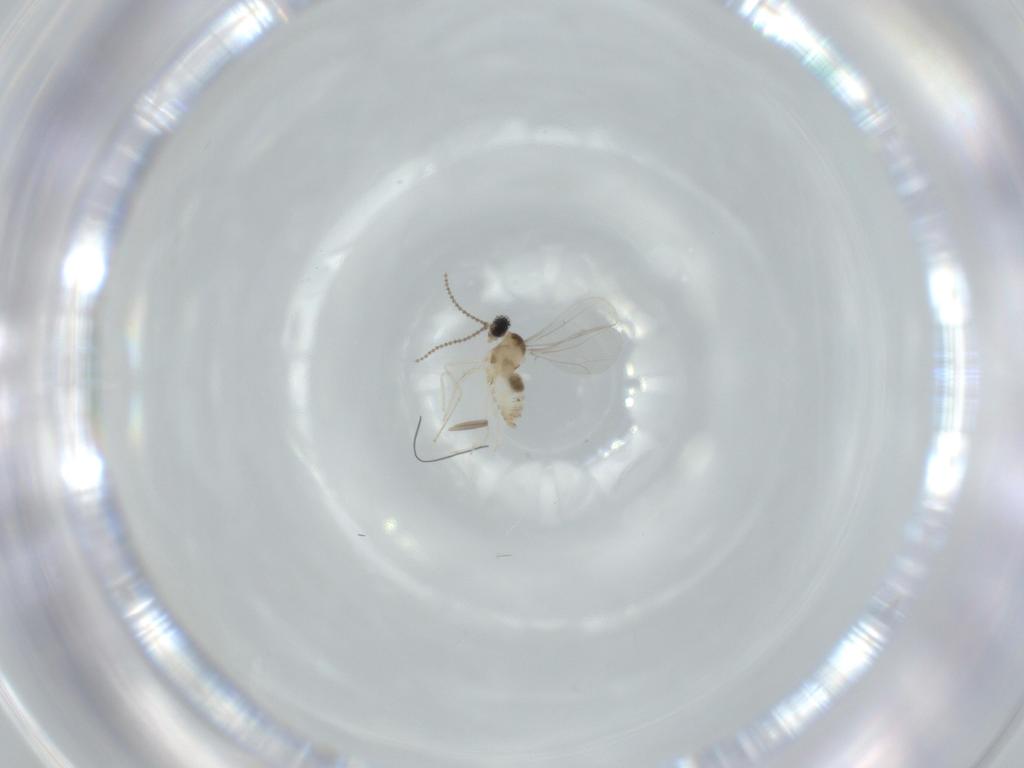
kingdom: Animalia
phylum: Arthropoda
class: Insecta
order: Diptera
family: Cecidomyiidae
